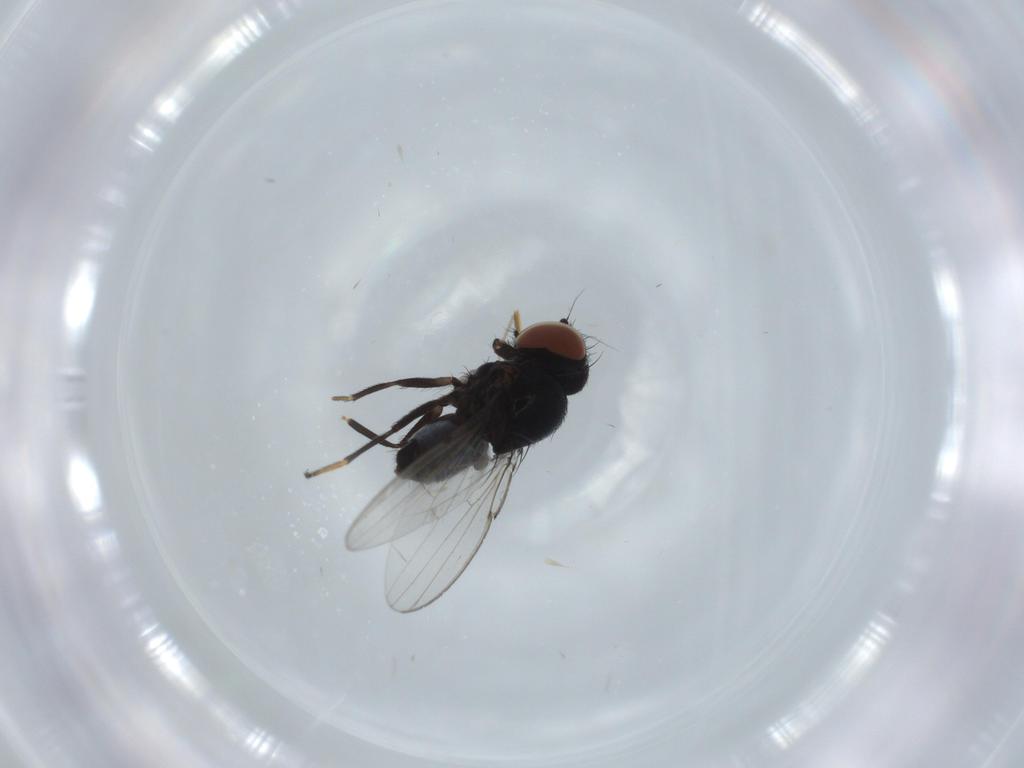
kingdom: Animalia
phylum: Arthropoda
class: Insecta
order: Diptera
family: Milichiidae
